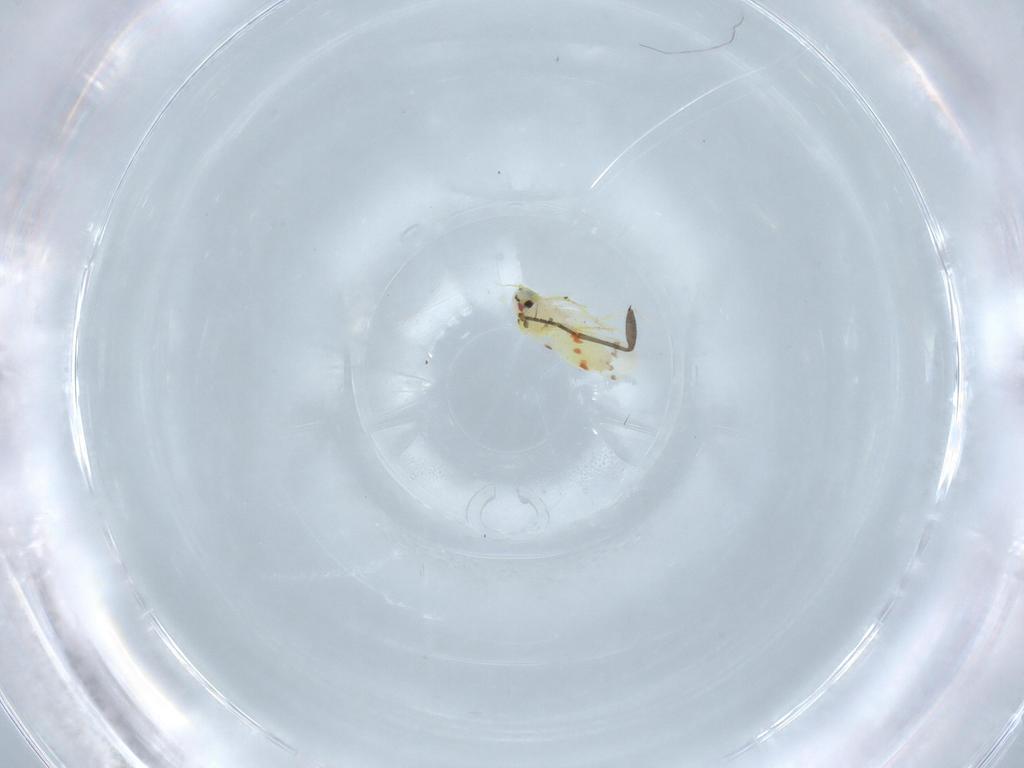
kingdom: Animalia
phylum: Arthropoda
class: Insecta
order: Hemiptera
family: Aleyrodidae
